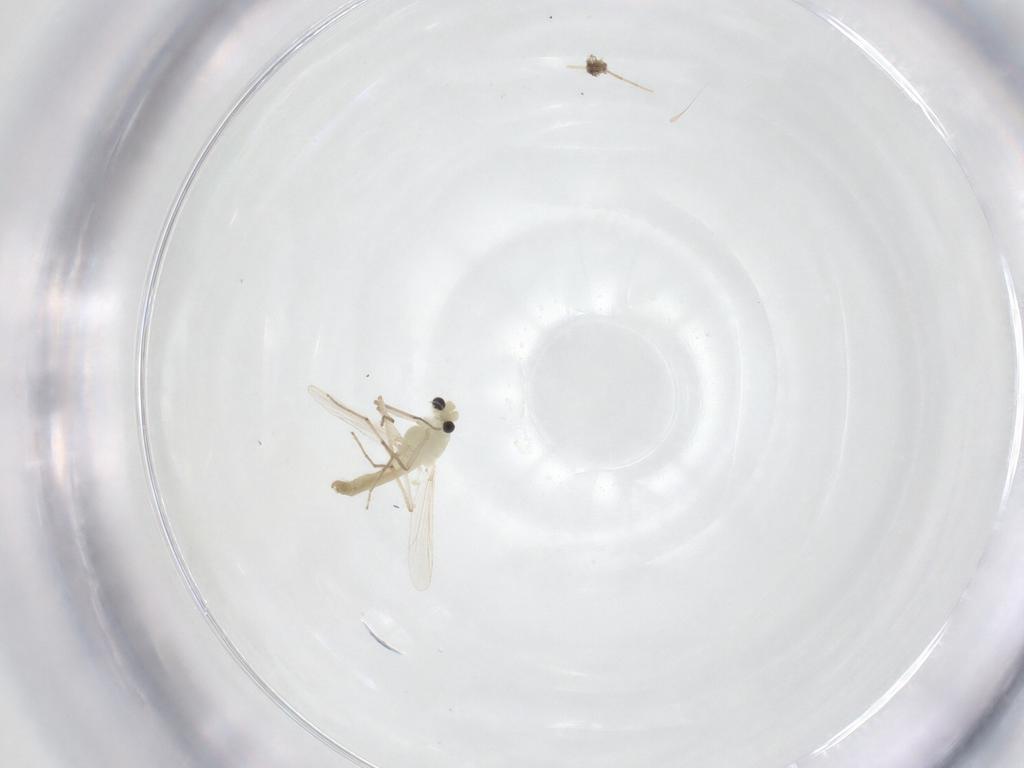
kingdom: Animalia
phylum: Arthropoda
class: Insecta
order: Diptera
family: Chironomidae
